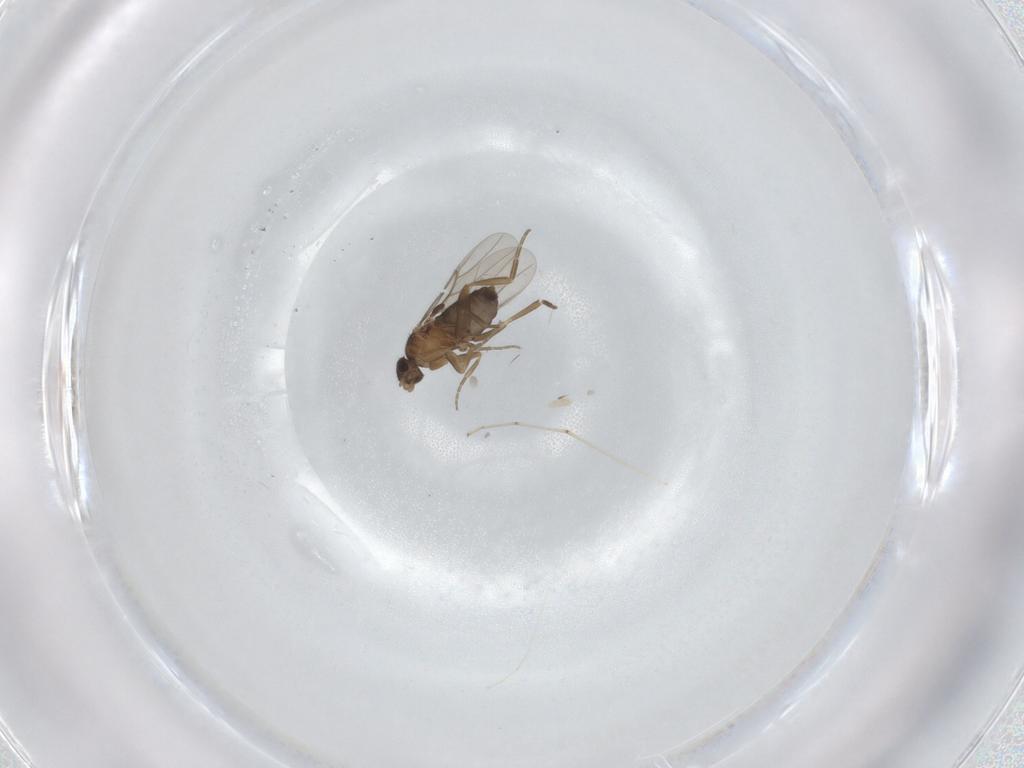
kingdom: Animalia
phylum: Arthropoda
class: Insecta
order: Diptera
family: Phoridae
